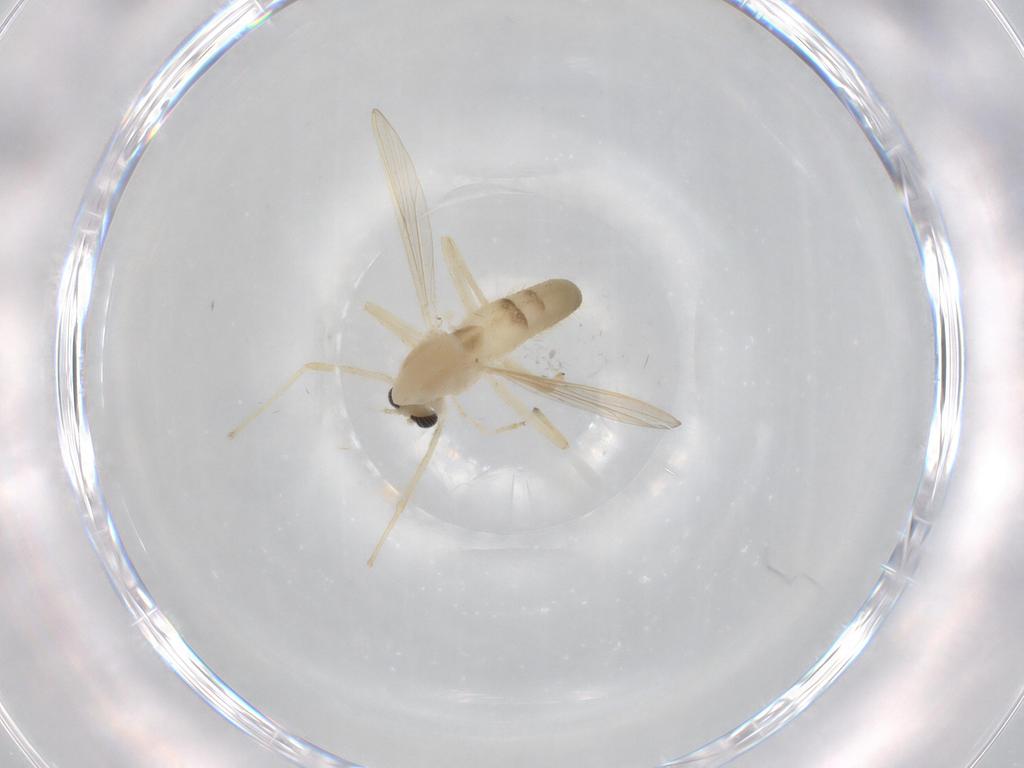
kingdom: Animalia
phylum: Arthropoda
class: Insecta
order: Diptera
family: Chironomidae
